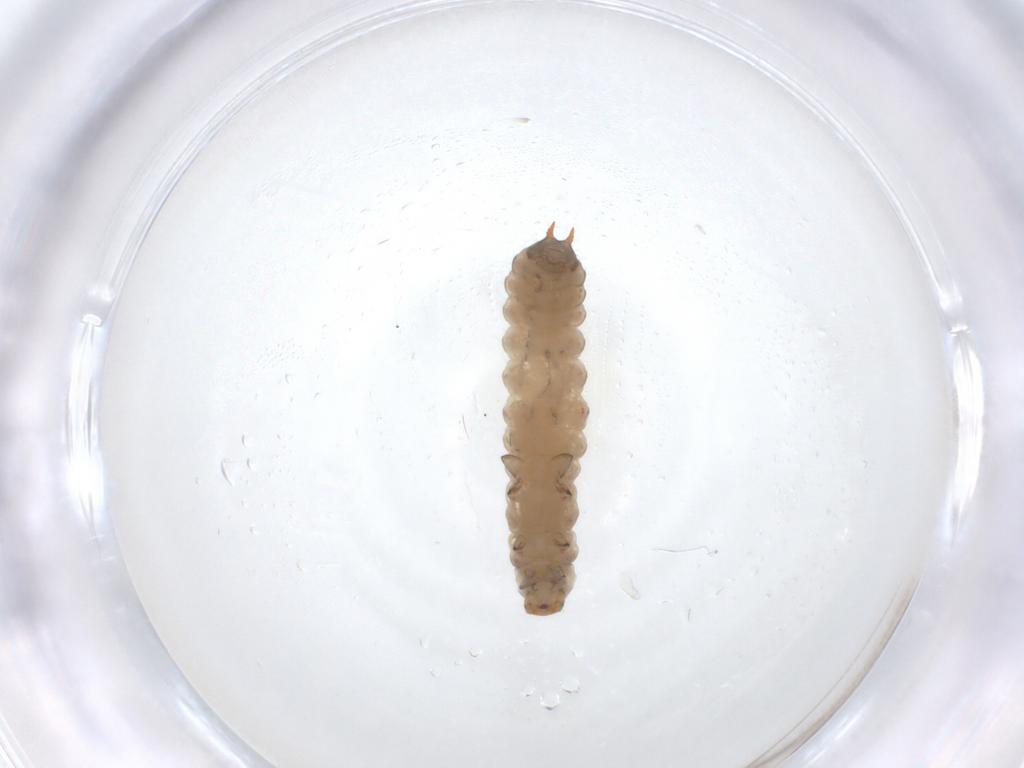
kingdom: Animalia
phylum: Arthropoda
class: Insecta
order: Coleoptera
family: Melyridae
